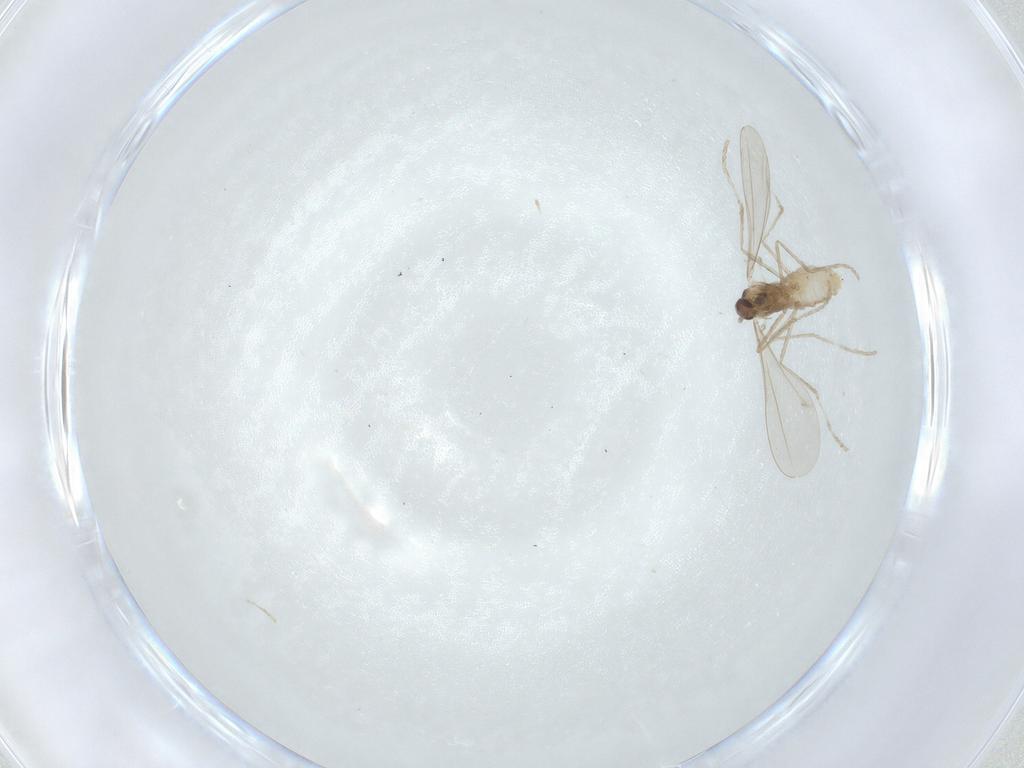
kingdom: Animalia
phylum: Arthropoda
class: Insecta
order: Diptera
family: Cecidomyiidae
